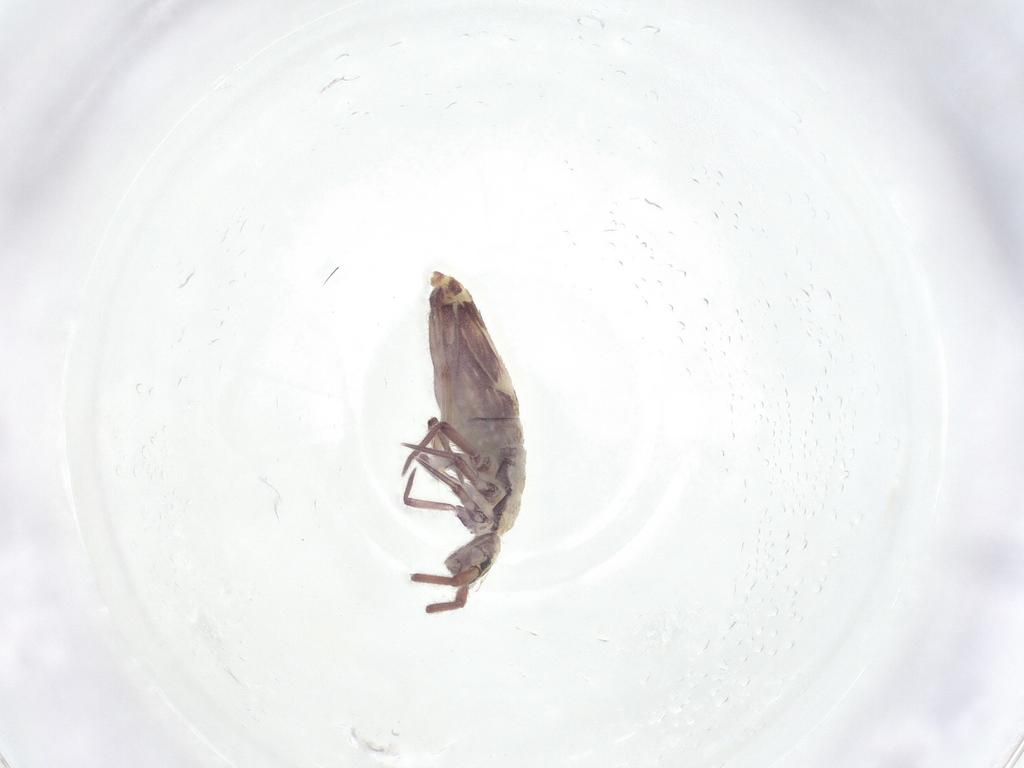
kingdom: Animalia
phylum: Arthropoda
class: Collembola
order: Entomobryomorpha
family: Entomobryidae
